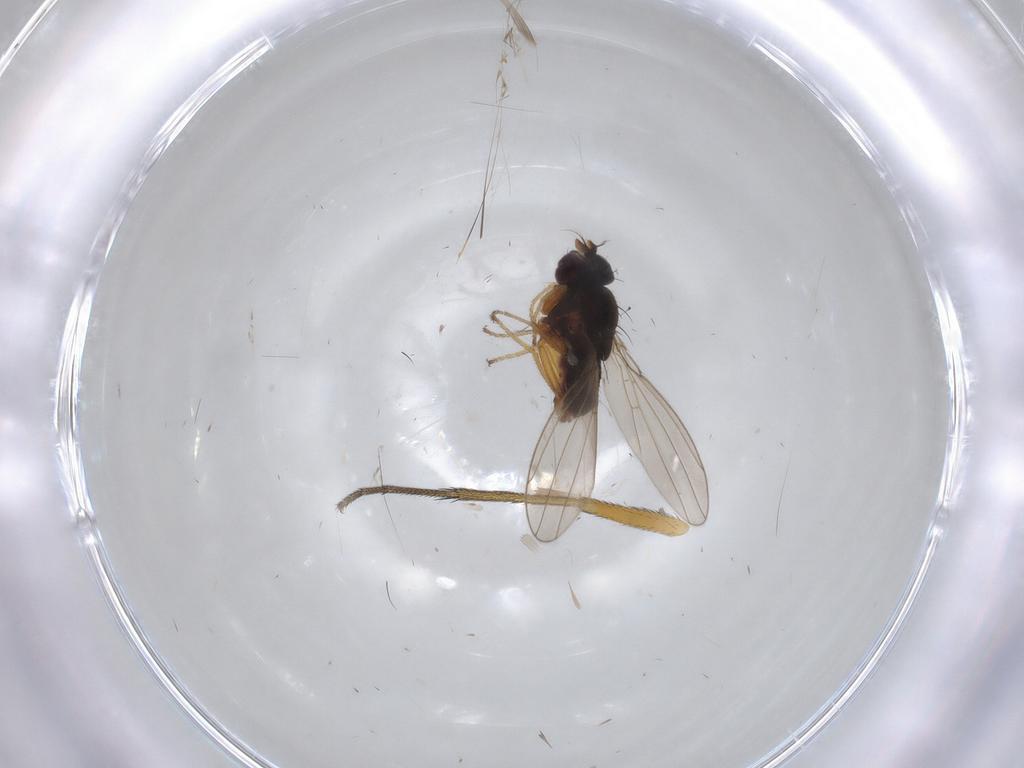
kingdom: Animalia
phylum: Arthropoda
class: Insecta
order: Diptera
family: Ephydridae
